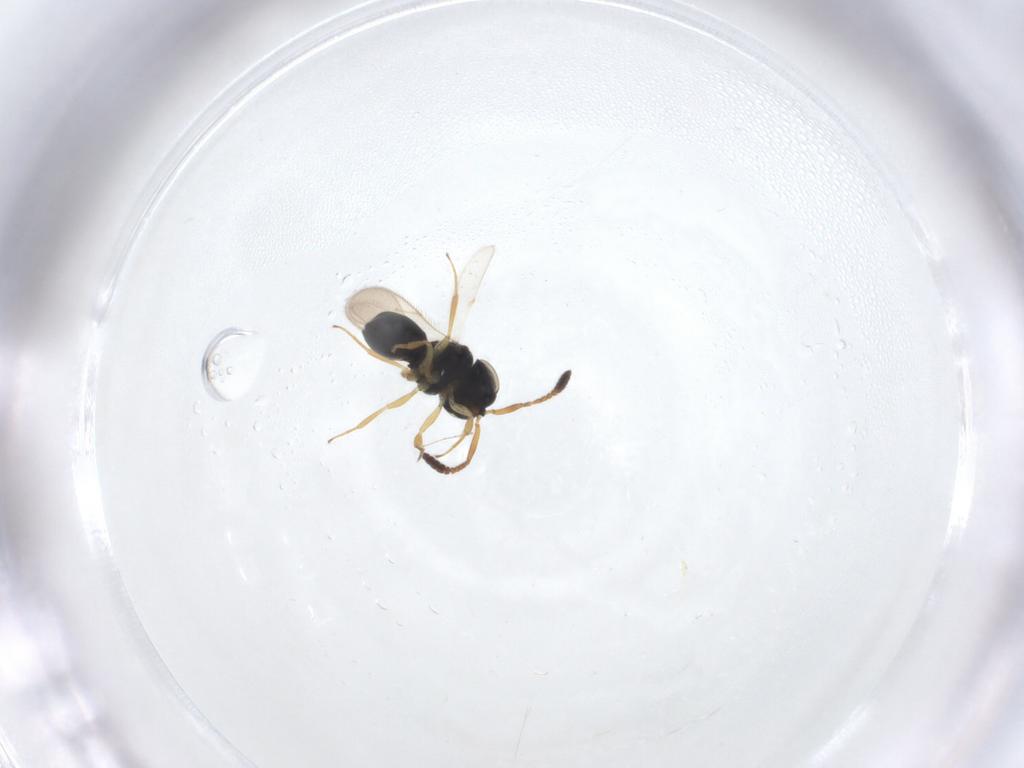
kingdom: Animalia
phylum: Arthropoda
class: Insecta
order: Hymenoptera
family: Scelionidae
